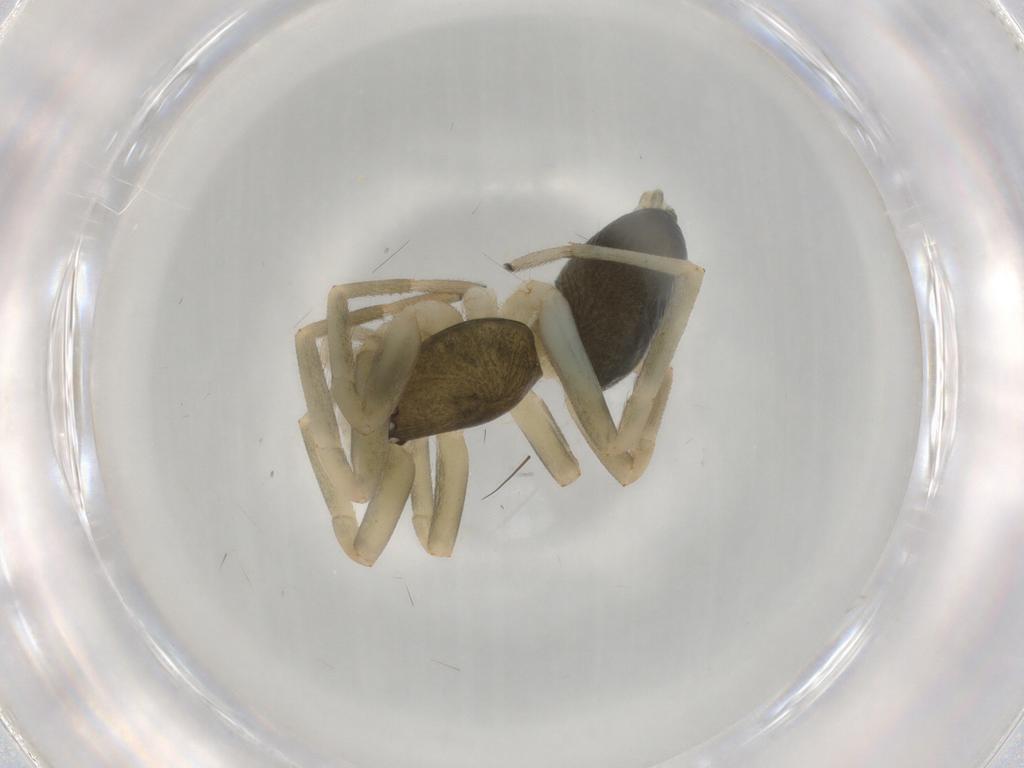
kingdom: Animalia
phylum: Arthropoda
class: Arachnida
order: Araneae
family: Trachelidae
